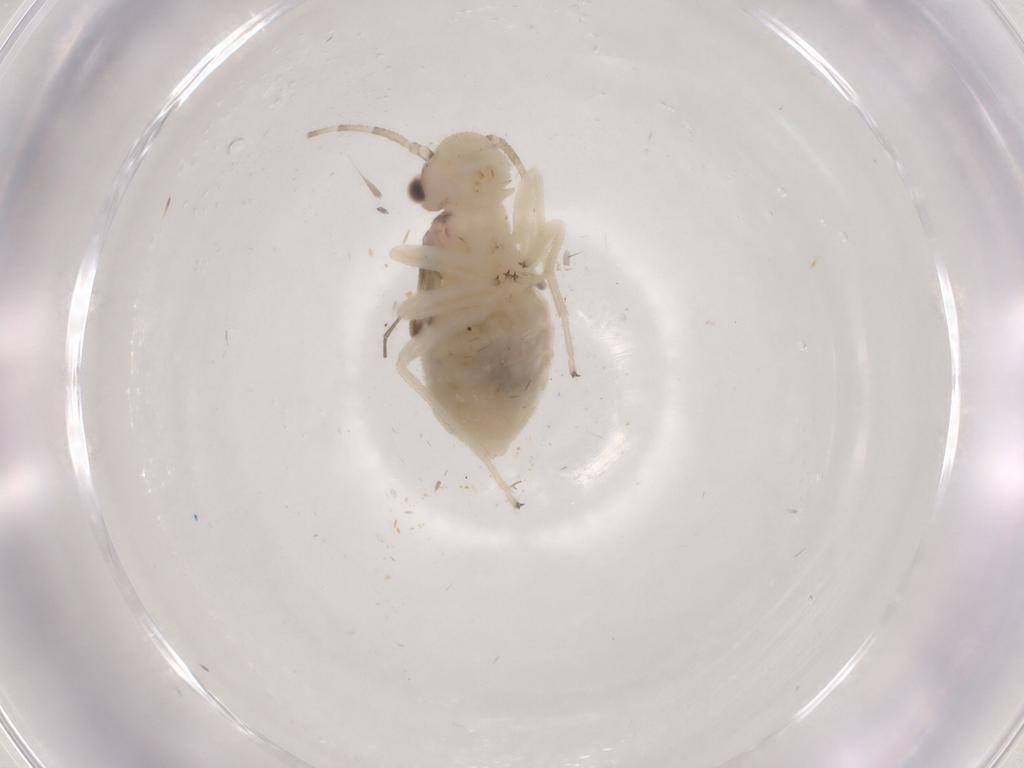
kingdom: Animalia
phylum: Arthropoda
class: Insecta
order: Psocodea
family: Amphipsocidae
